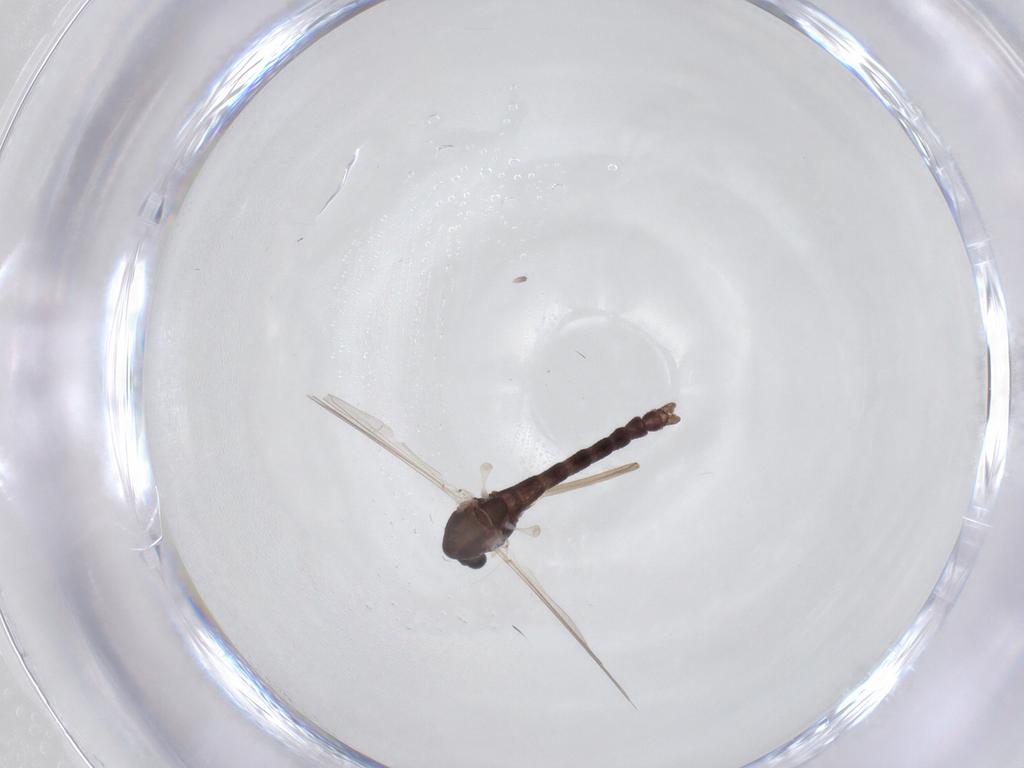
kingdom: Animalia
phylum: Arthropoda
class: Insecta
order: Diptera
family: Chironomidae
